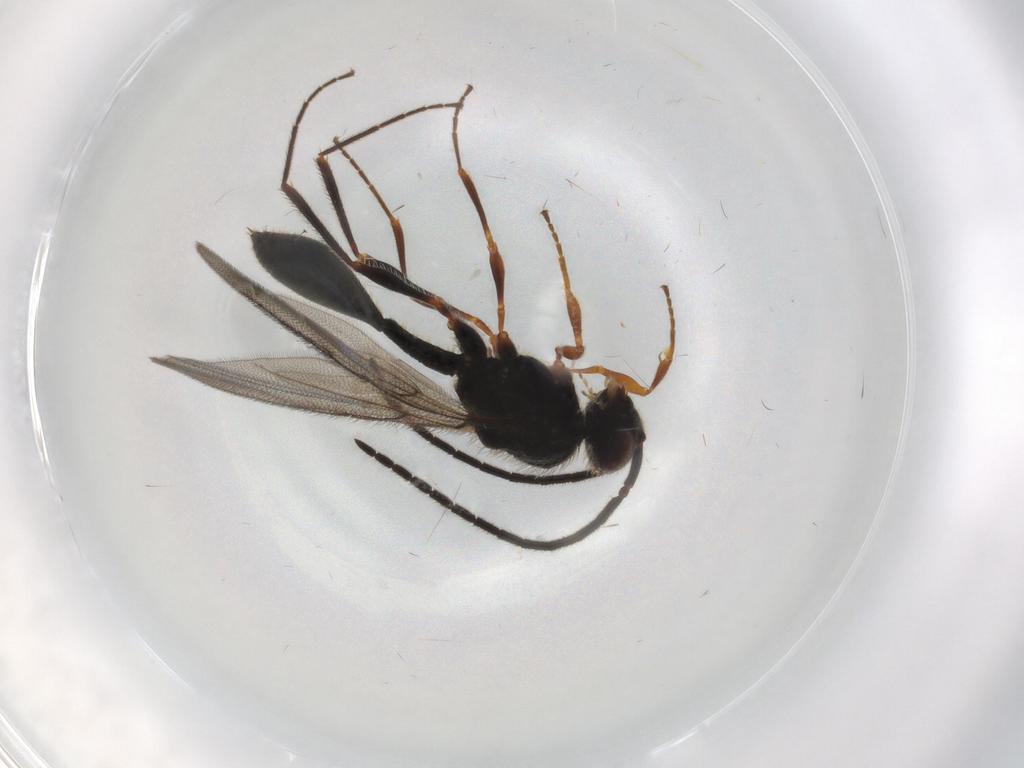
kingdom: Animalia
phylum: Arthropoda
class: Insecta
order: Hymenoptera
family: Diapriidae
